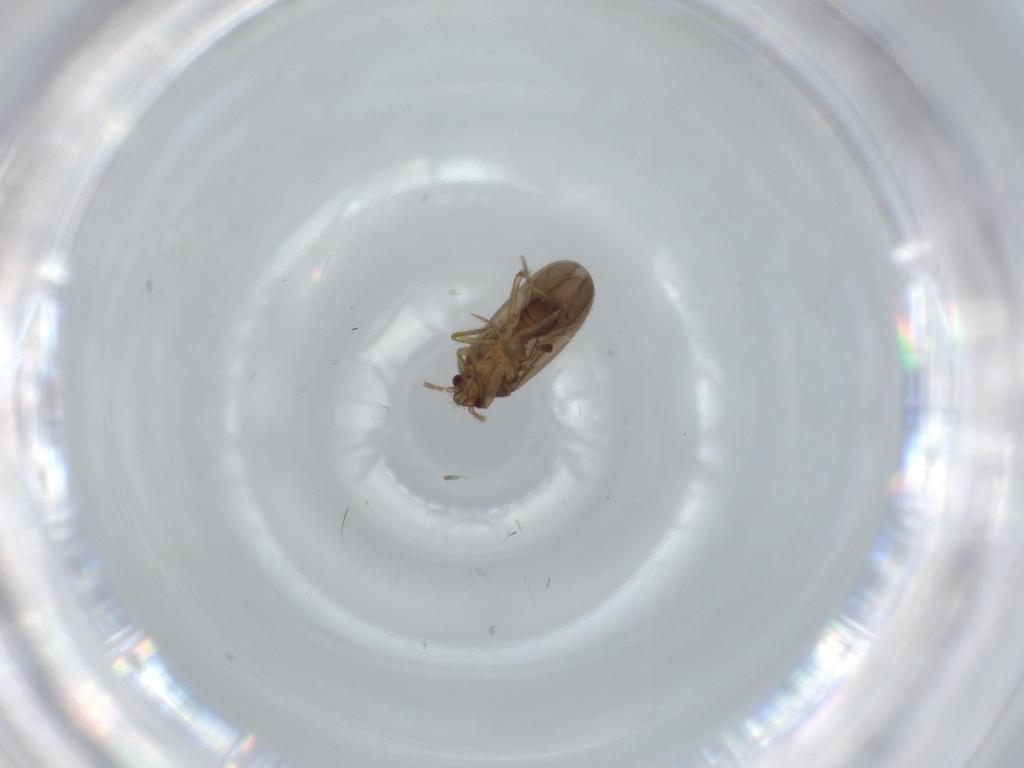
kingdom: Animalia
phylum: Arthropoda
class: Insecta
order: Hemiptera
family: Ceratocombidae
